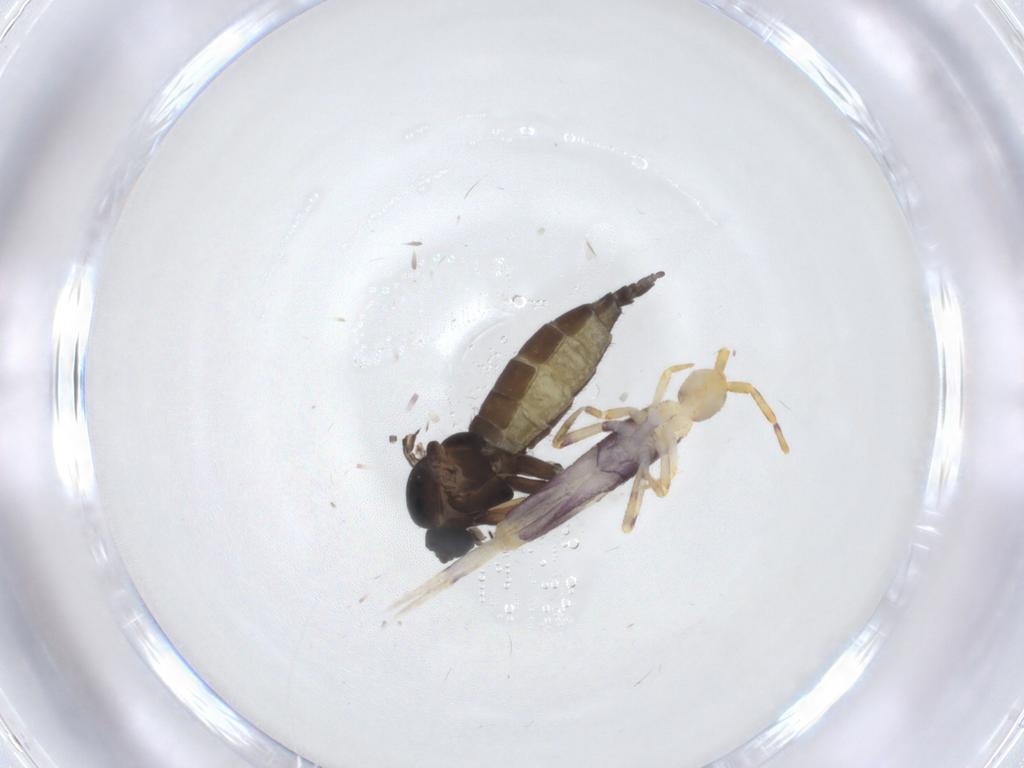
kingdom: Animalia
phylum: Arthropoda
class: Insecta
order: Diptera
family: Sciaridae
